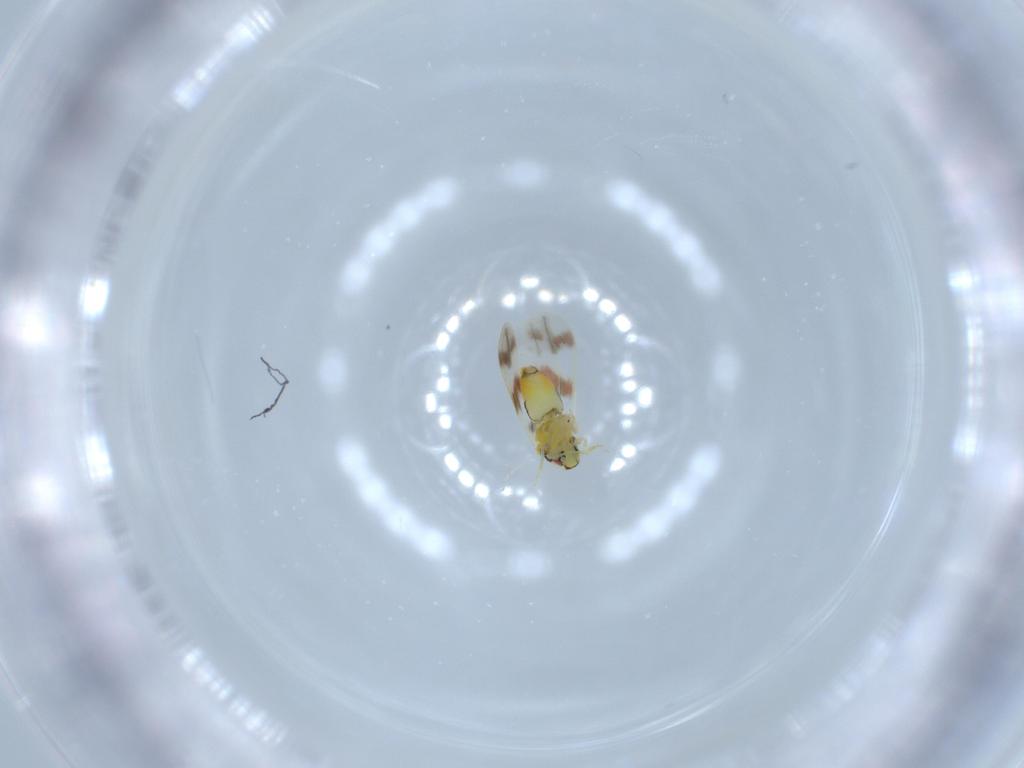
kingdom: Animalia
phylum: Arthropoda
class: Insecta
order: Hemiptera
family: Aleyrodidae
